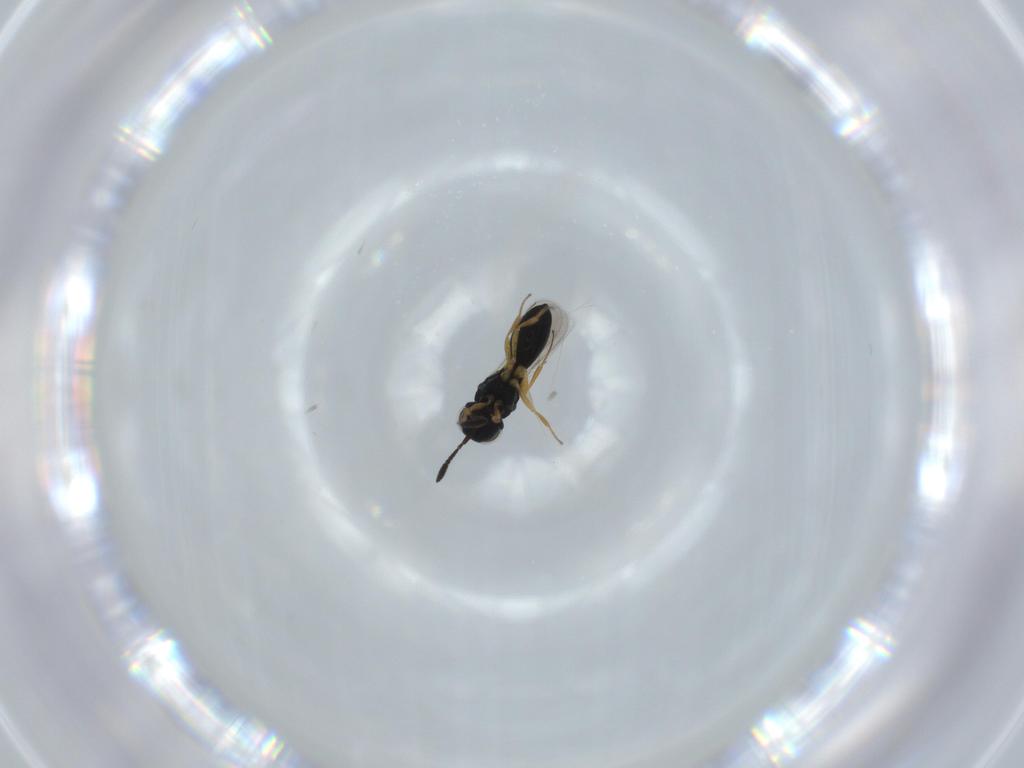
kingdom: Animalia
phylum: Arthropoda
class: Insecta
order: Hymenoptera
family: Scelionidae
